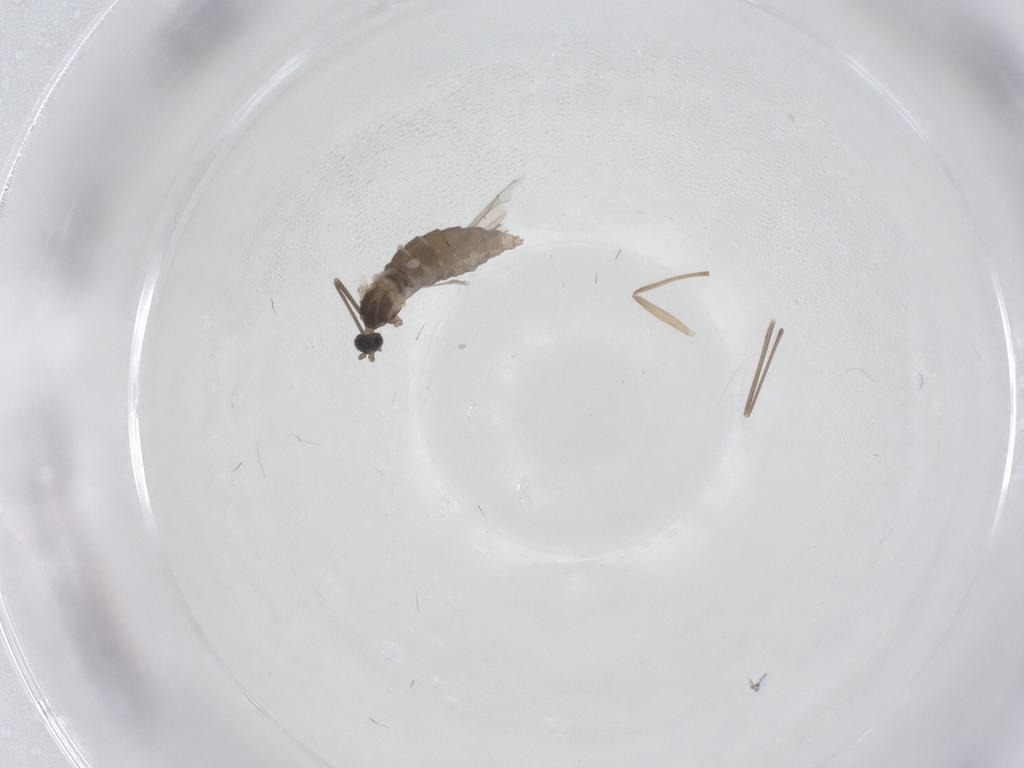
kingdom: Animalia
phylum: Arthropoda
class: Insecta
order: Diptera
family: Cecidomyiidae
